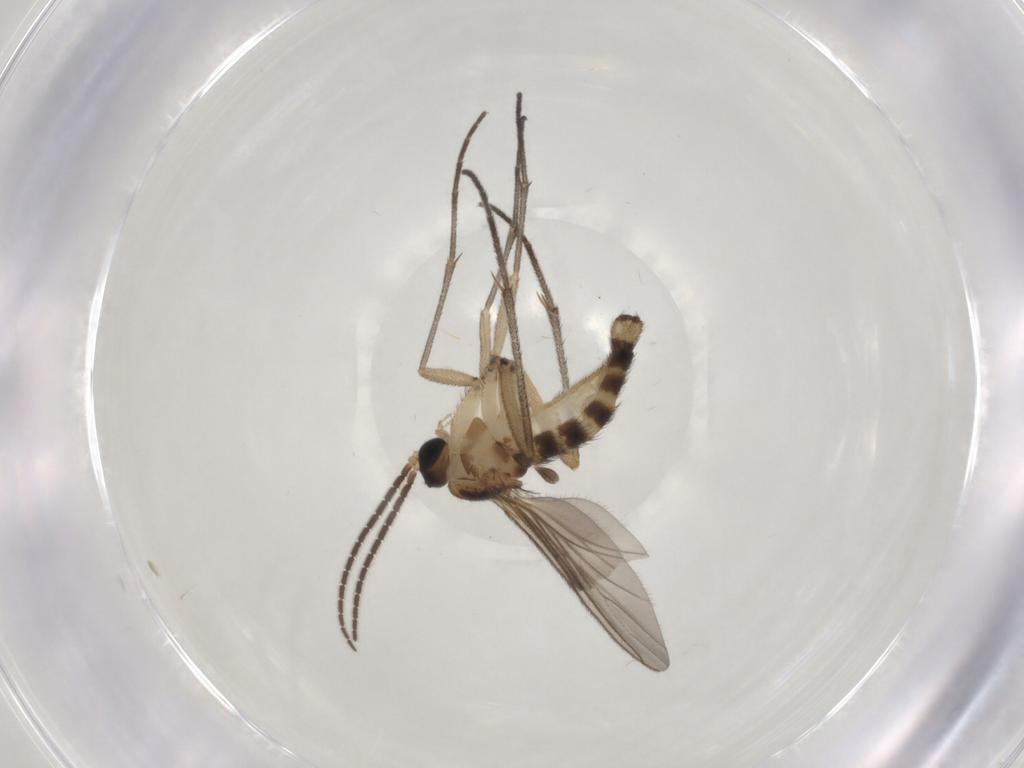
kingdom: Animalia
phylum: Arthropoda
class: Insecta
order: Diptera
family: Sciaridae
